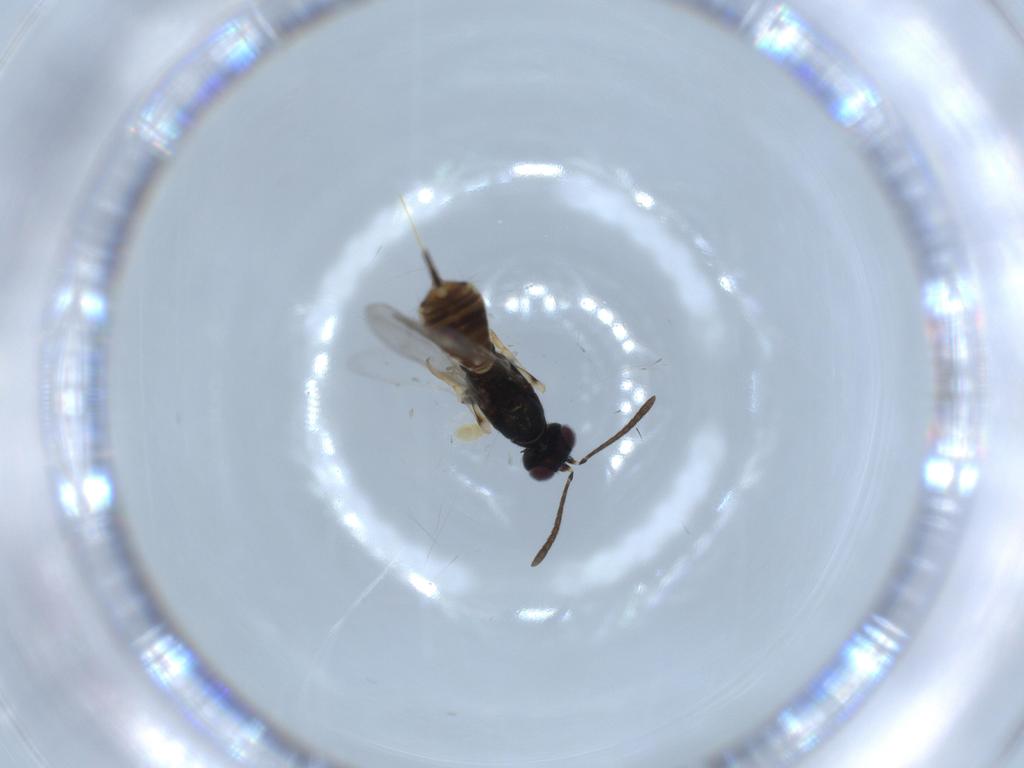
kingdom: Animalia
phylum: Arthropoda
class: Insecta
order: Hymenoptera
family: Eupelmidae
